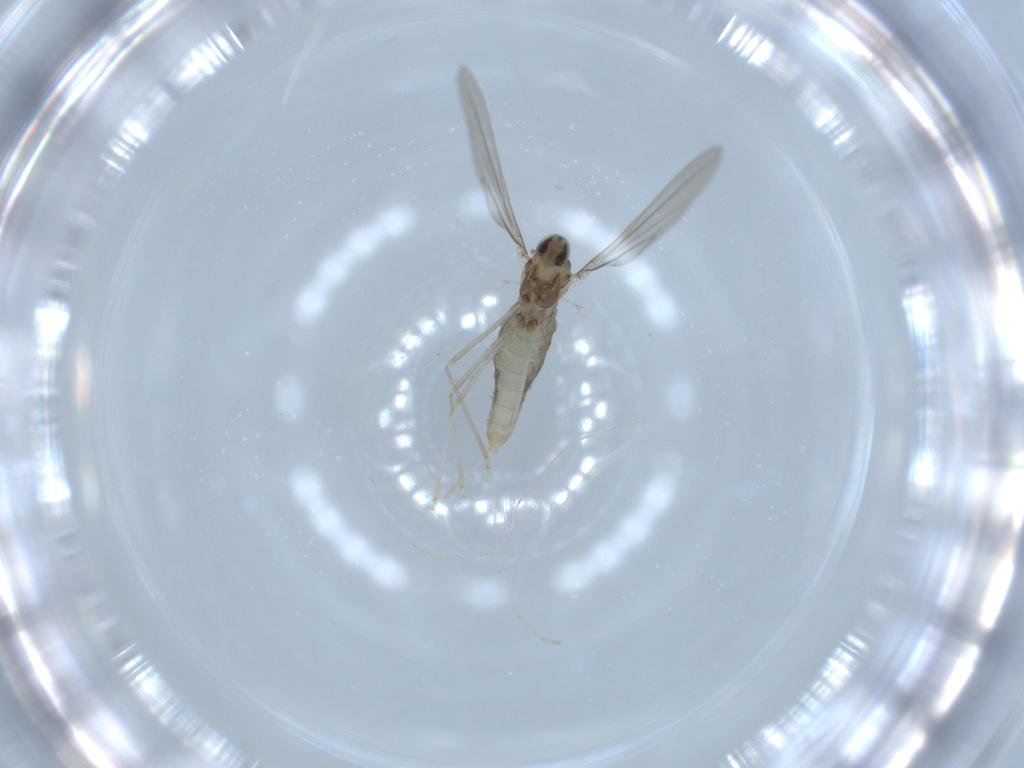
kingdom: Animalia
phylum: Arthropoda
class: Insecta
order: Diptera
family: Cecidomyiidae
